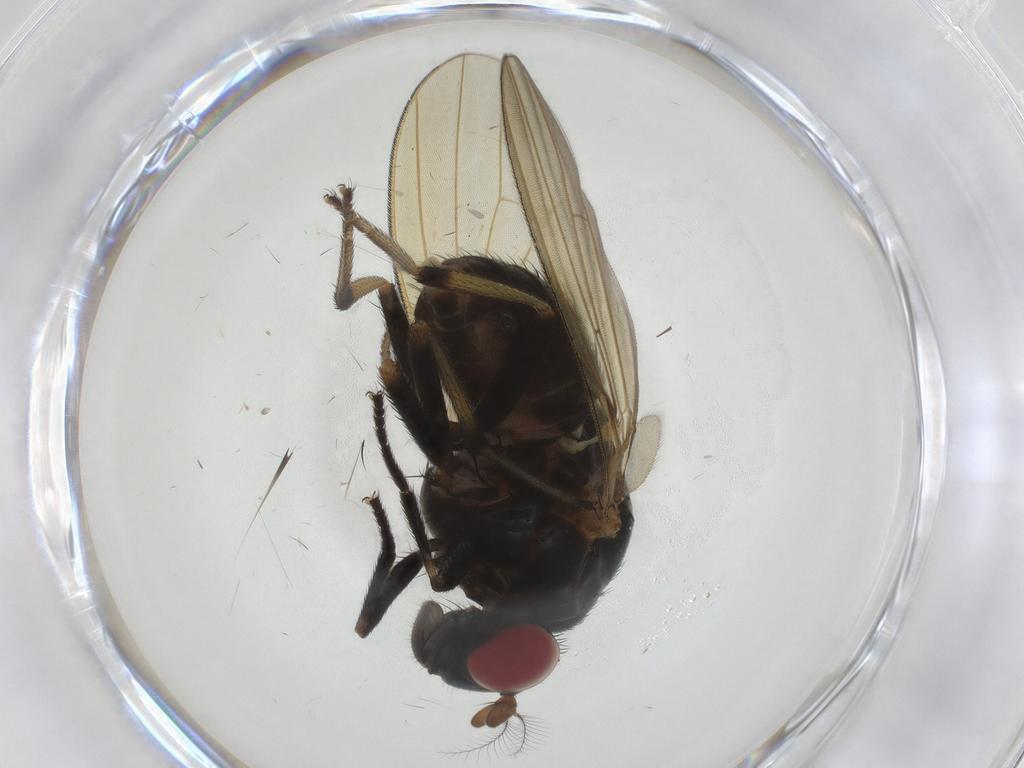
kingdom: Animalia
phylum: Arthropoda
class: Insecta
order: Diptera
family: Chironomidae
